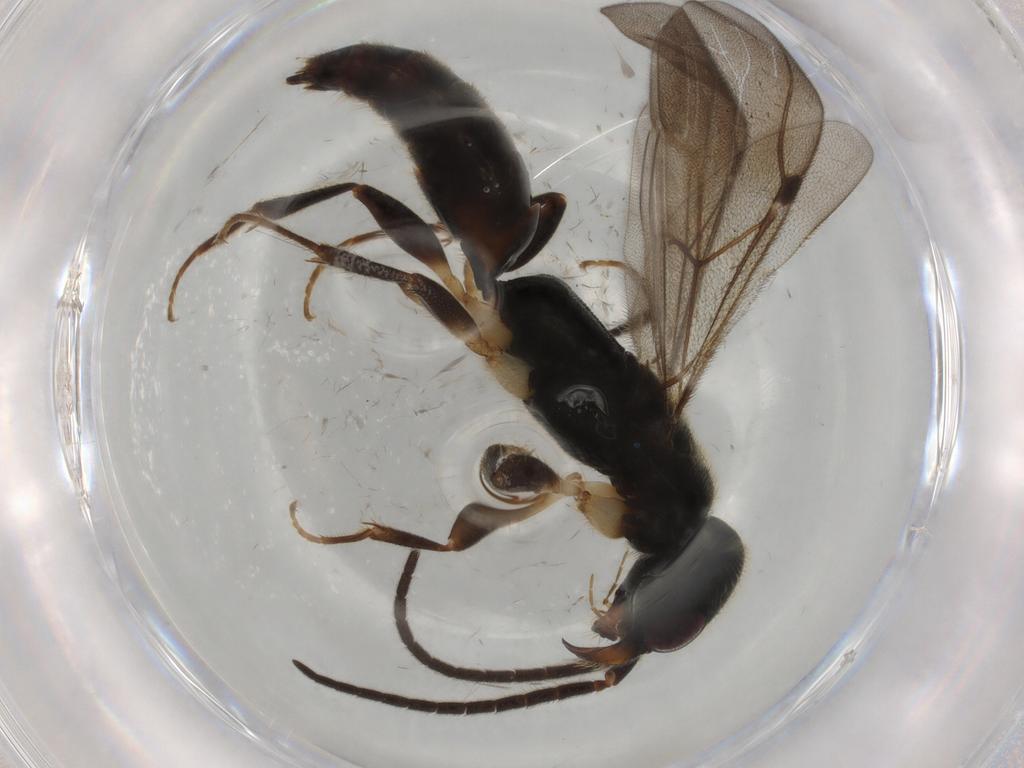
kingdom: Animalia
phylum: Arthropoda
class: Insecta
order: Hymenoptera
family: Bethylidae
